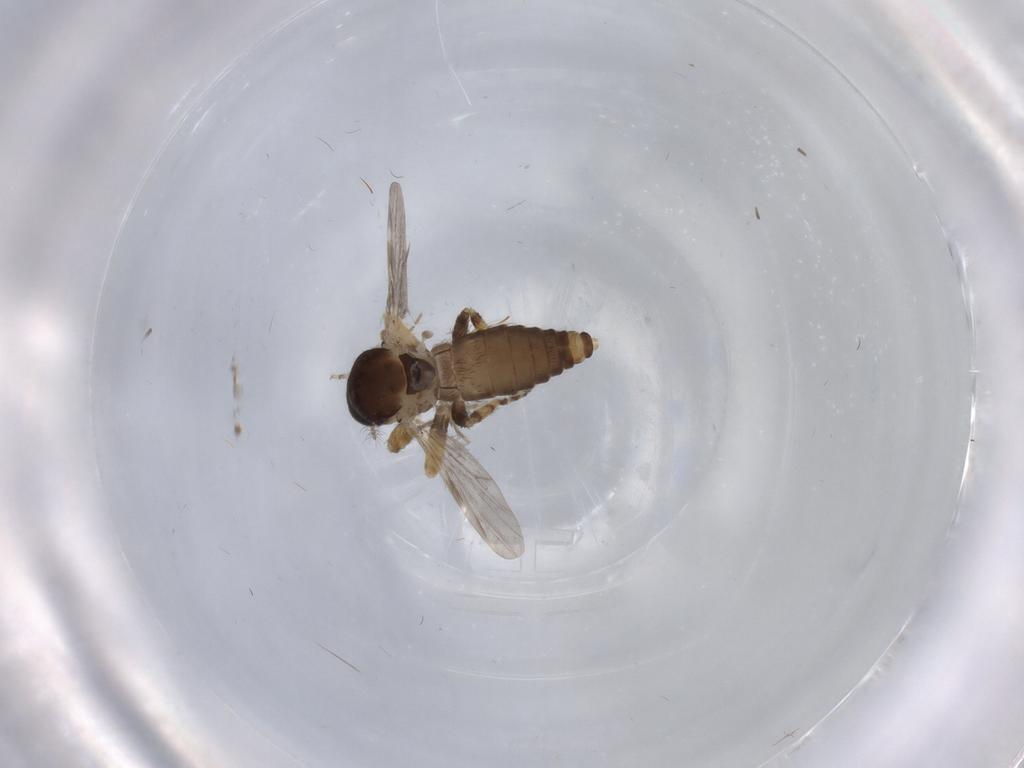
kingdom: Animalia
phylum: Arthropoda
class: Insecta
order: Diptera
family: Ceratopogonidae
